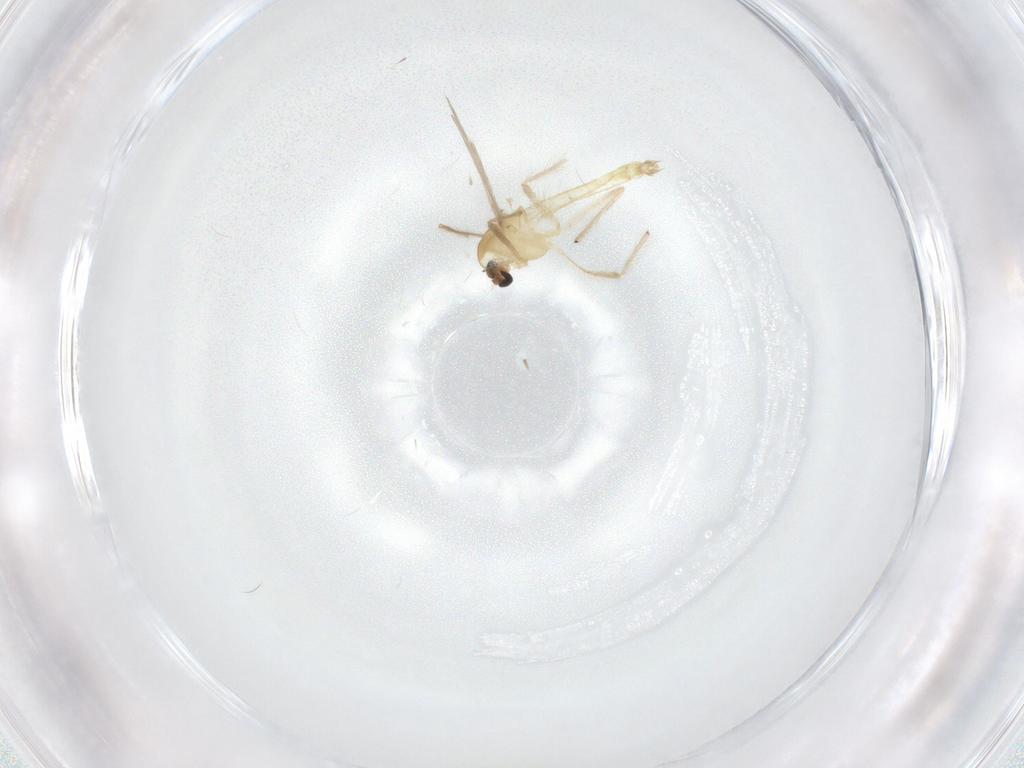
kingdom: Animalia
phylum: Arthropoda
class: Insecta
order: Diptera
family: Chironomidae
